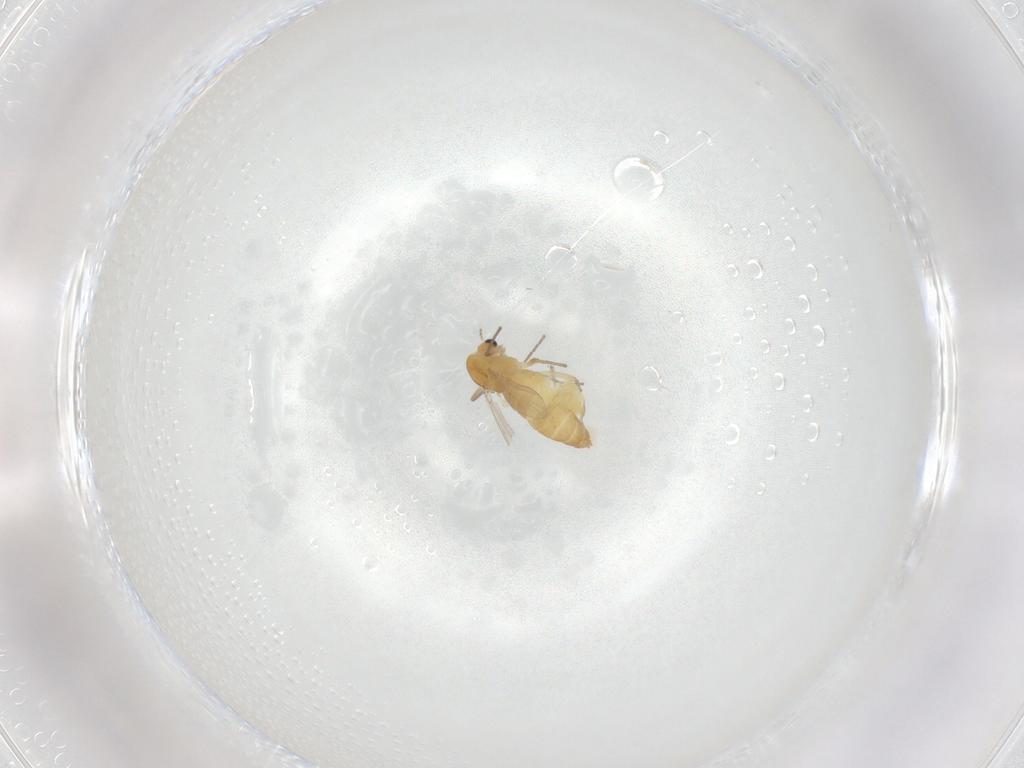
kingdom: Animalia
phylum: Arthropoda
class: Insecta
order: Diptera
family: Chironomidae
